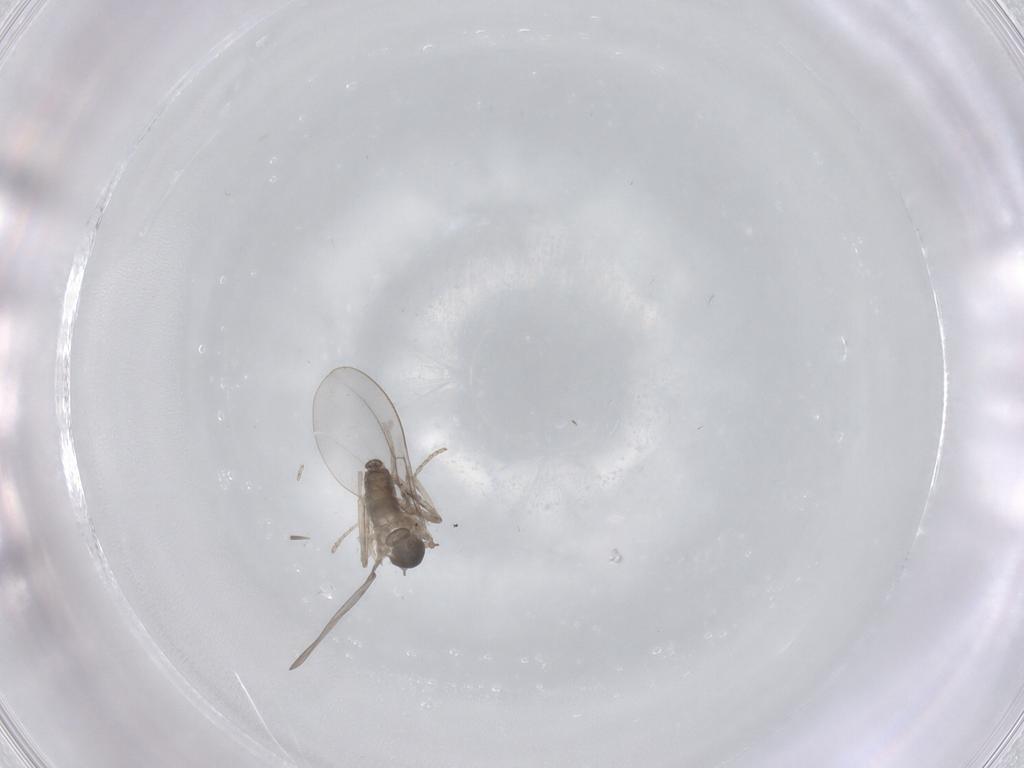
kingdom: Animalia
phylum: Arthropoda
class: Insecta
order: Diptera
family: Cecidomyiidae
